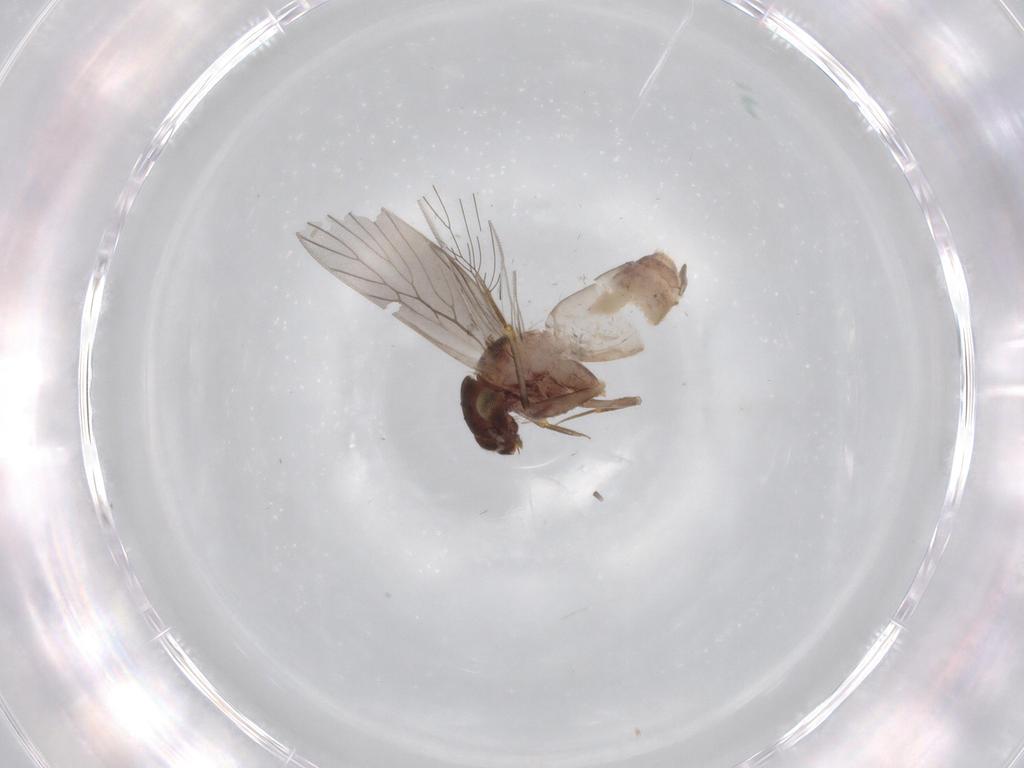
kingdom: Animalia
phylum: Arthropoda
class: Insecta
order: Psocodea
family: Lepidopsocidae
